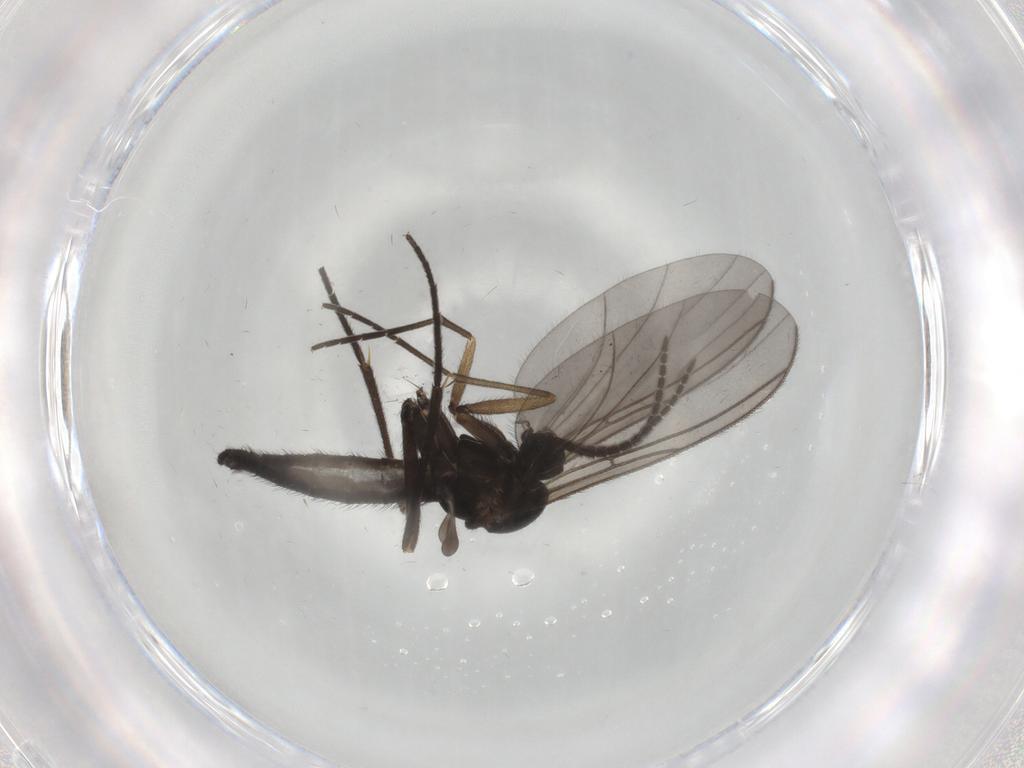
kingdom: Animalia
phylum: Arthropoda
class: Insecta
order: Diptera
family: Sciaridae
